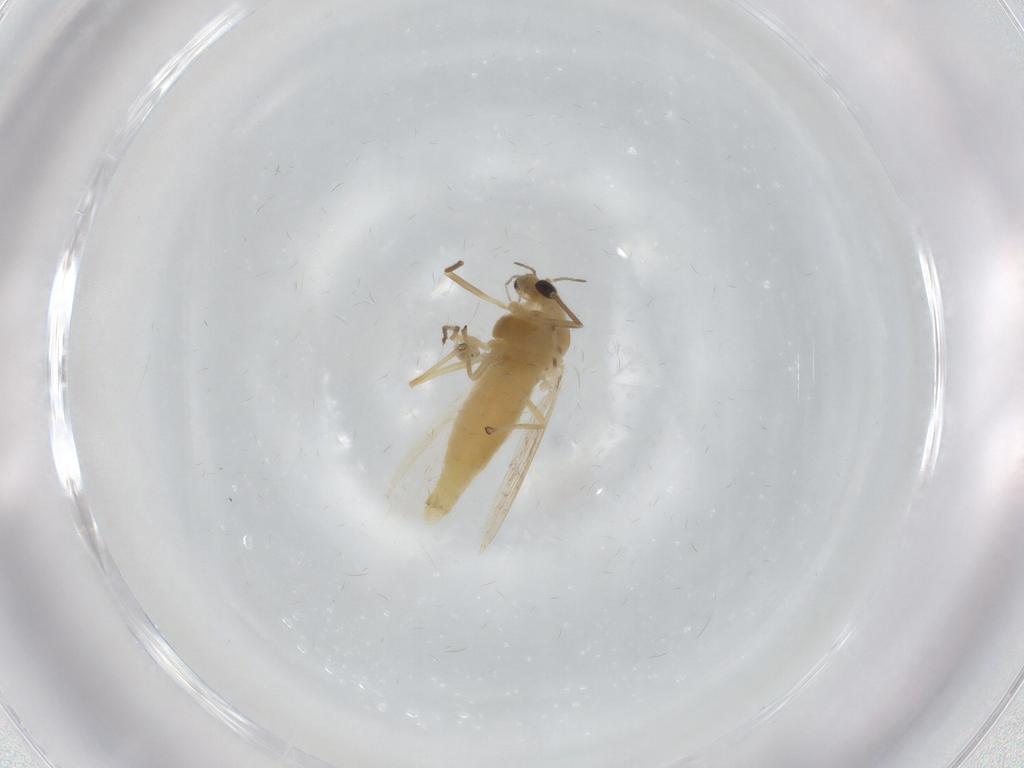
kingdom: Animalia
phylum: Arthropoda
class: Insecta
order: Diptera
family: Chironomidae
